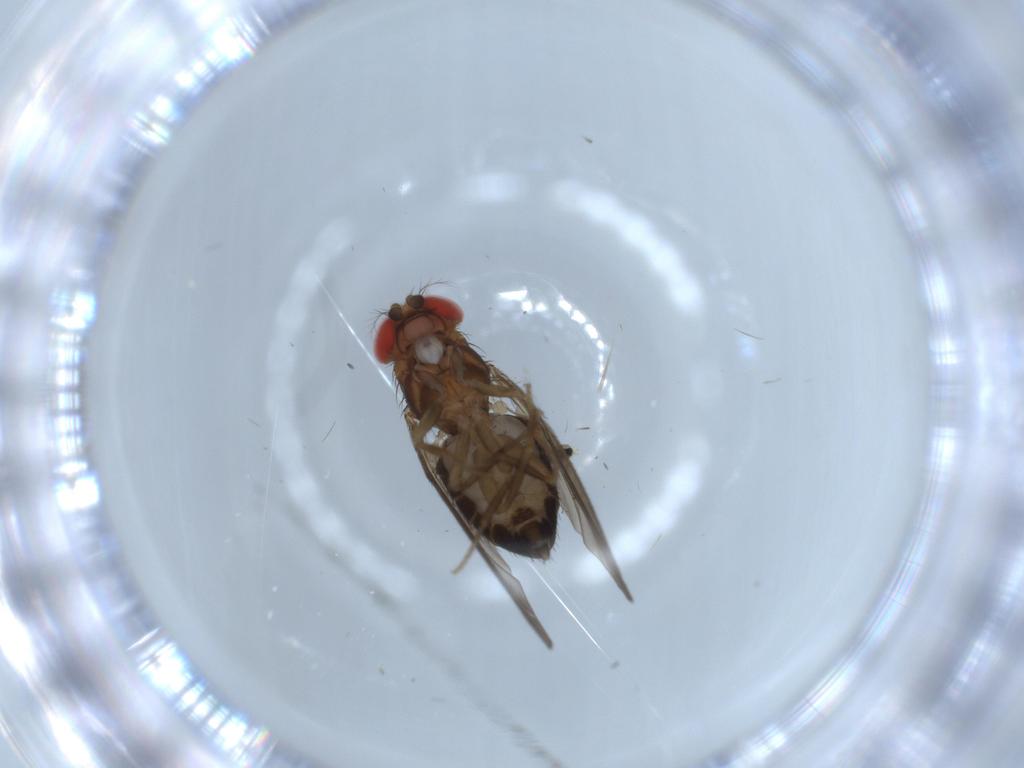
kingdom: Animalia
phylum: Arthropoda
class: Insecta
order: Diptera
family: Drosophilidae
